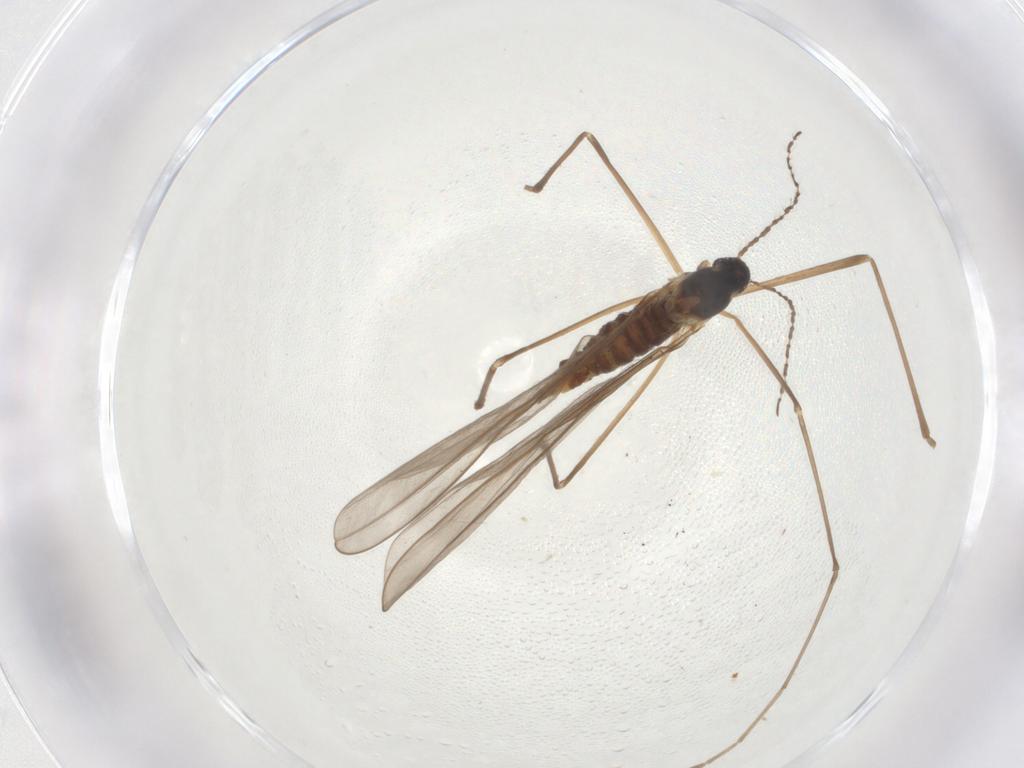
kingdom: Animalia
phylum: Arthropoda
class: Insecta
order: Diptera
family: Cecidomyiidae
